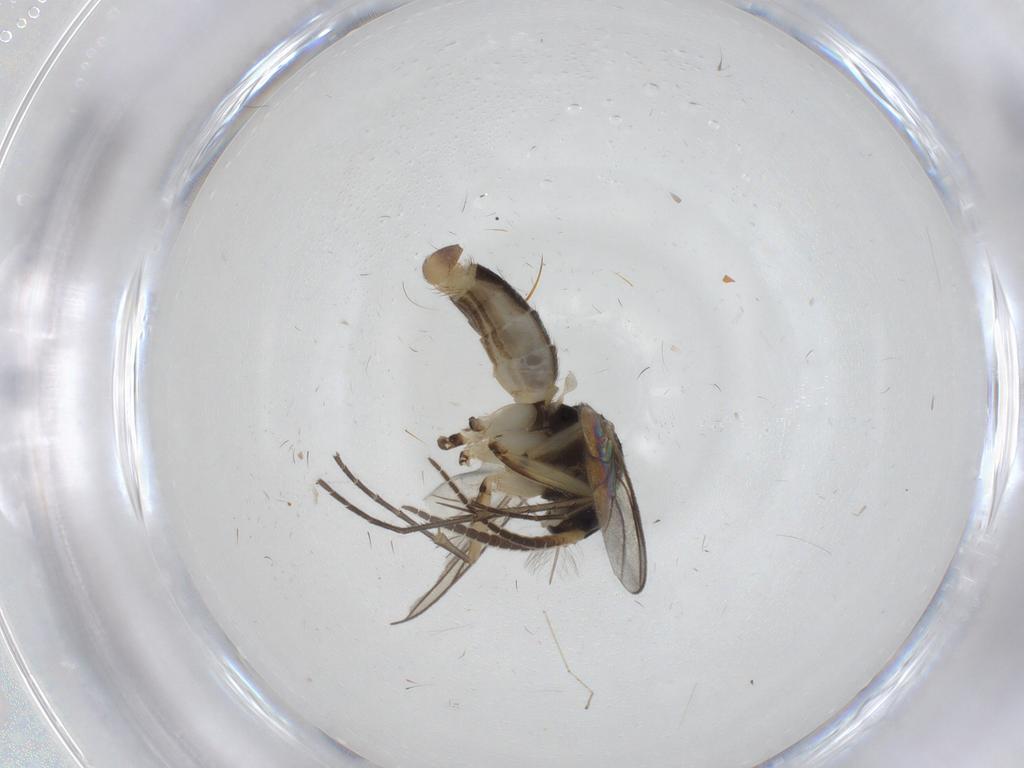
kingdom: Animalia
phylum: Arthropoda
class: Insecta
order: Diptera
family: Mycetophilidae
